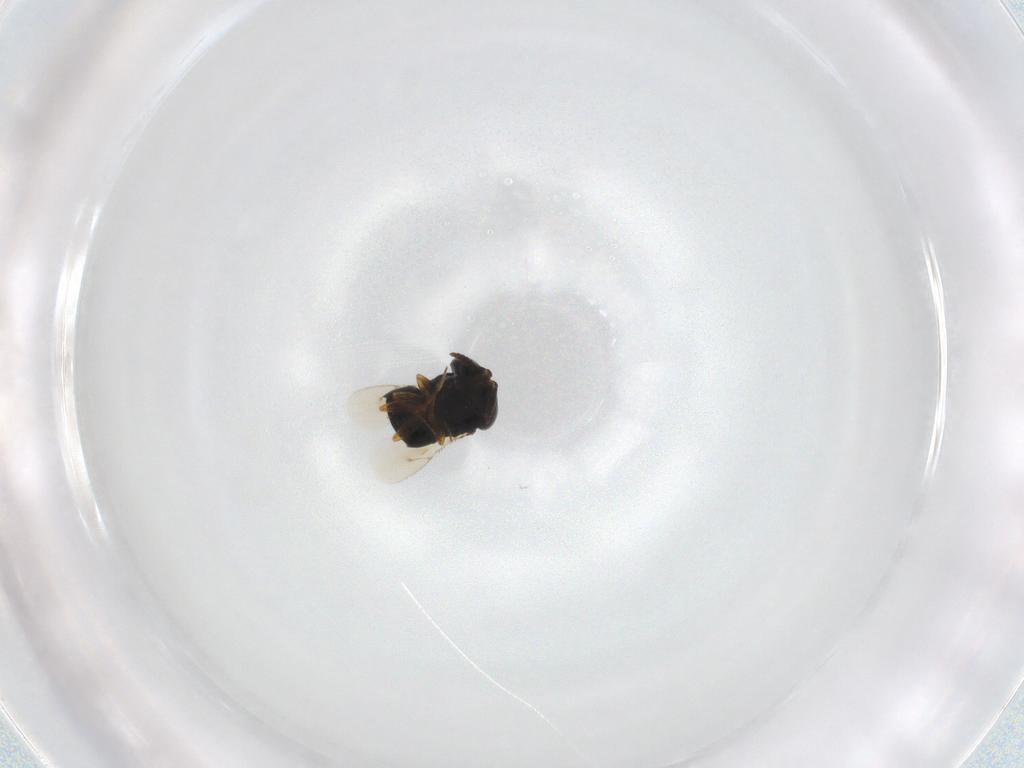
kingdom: Animalia
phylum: Arthropoda
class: Insecta
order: Hymenoptera
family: Scelionidae
